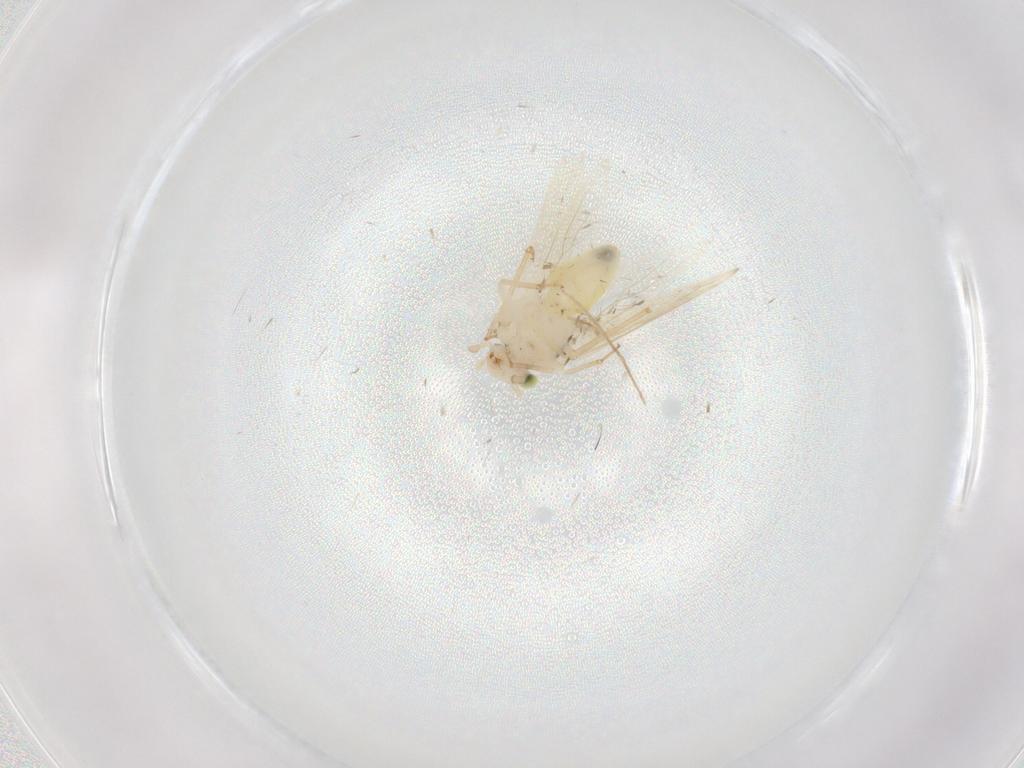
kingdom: Animalia
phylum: Arthropoda
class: Insecta
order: Psocodea
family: Lepidopsocidae
